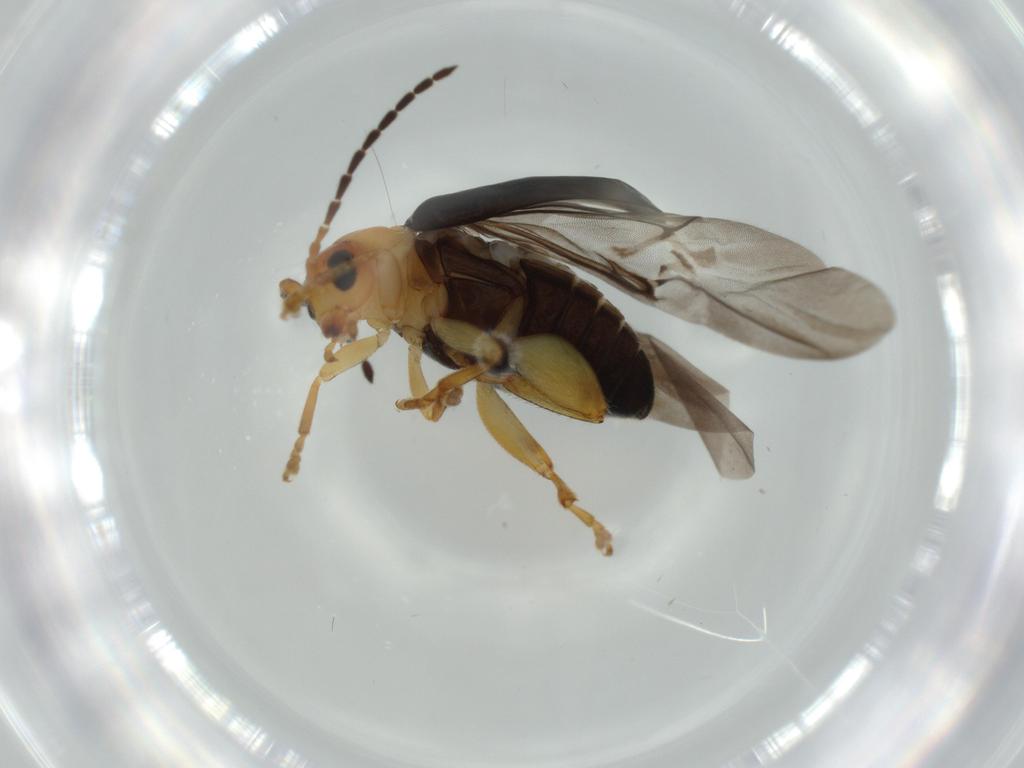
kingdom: Animalia
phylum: Arthropoda
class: Insecta
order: Coleoptera
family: Chrysomelidae
